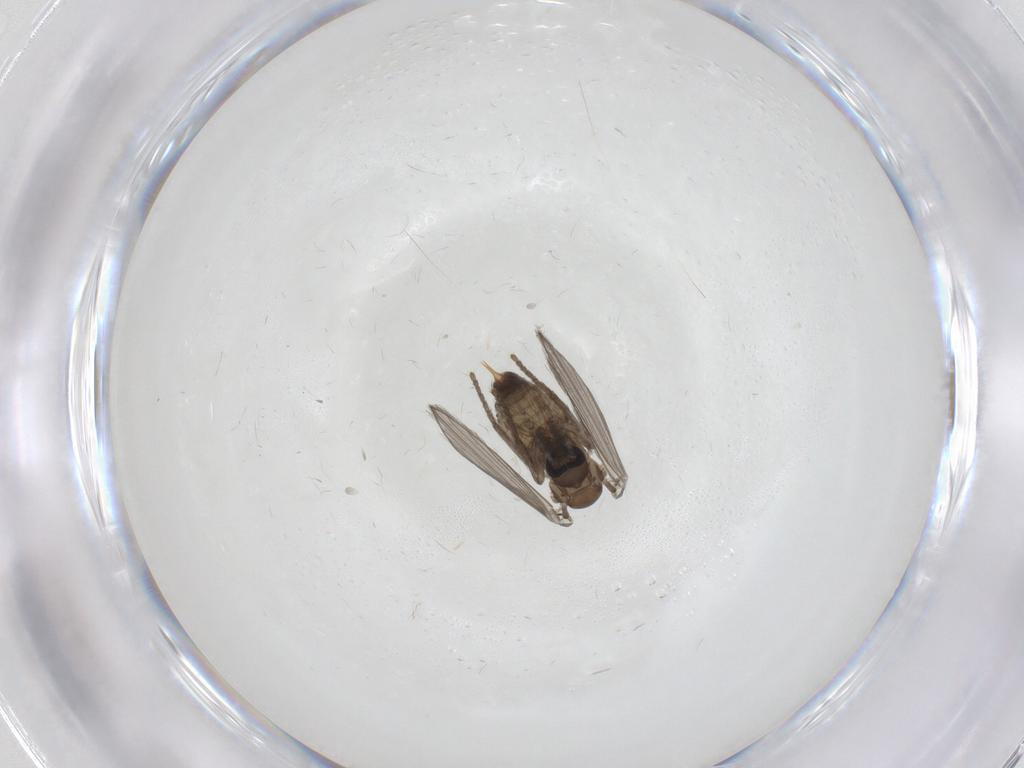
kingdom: Animalia
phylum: Arthropoda
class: Insecta
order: Diptera
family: Psychodidae
